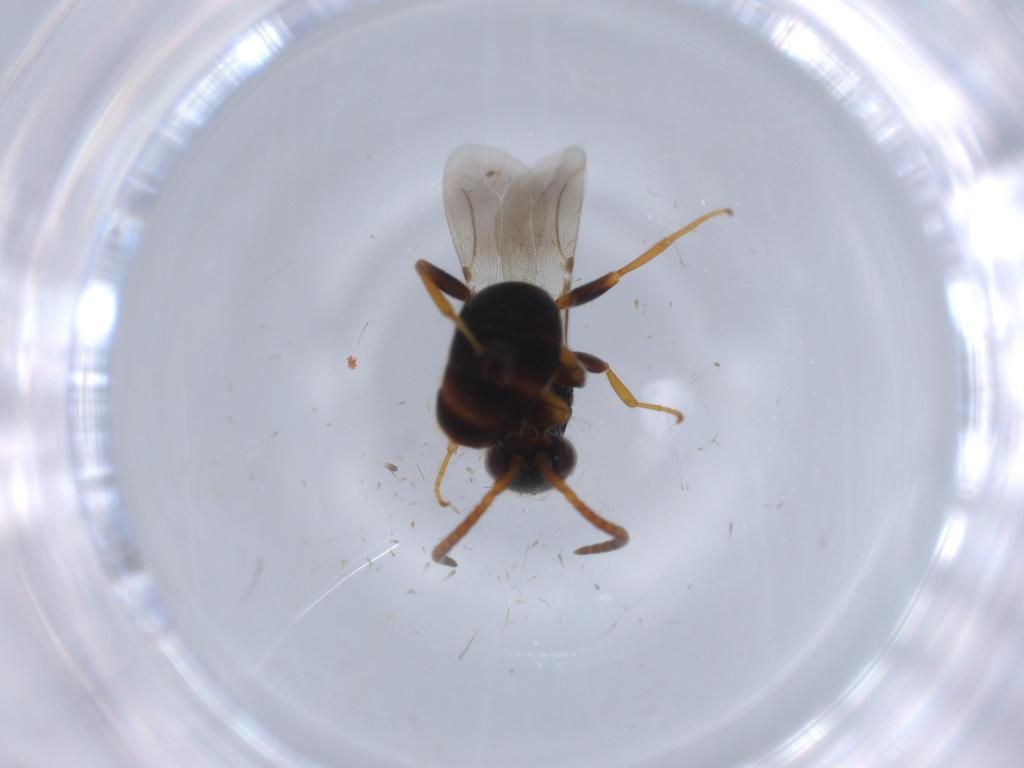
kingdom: Animalia
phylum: Arthropoda
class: Insecta
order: Hymenoptera
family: Bethylidae
